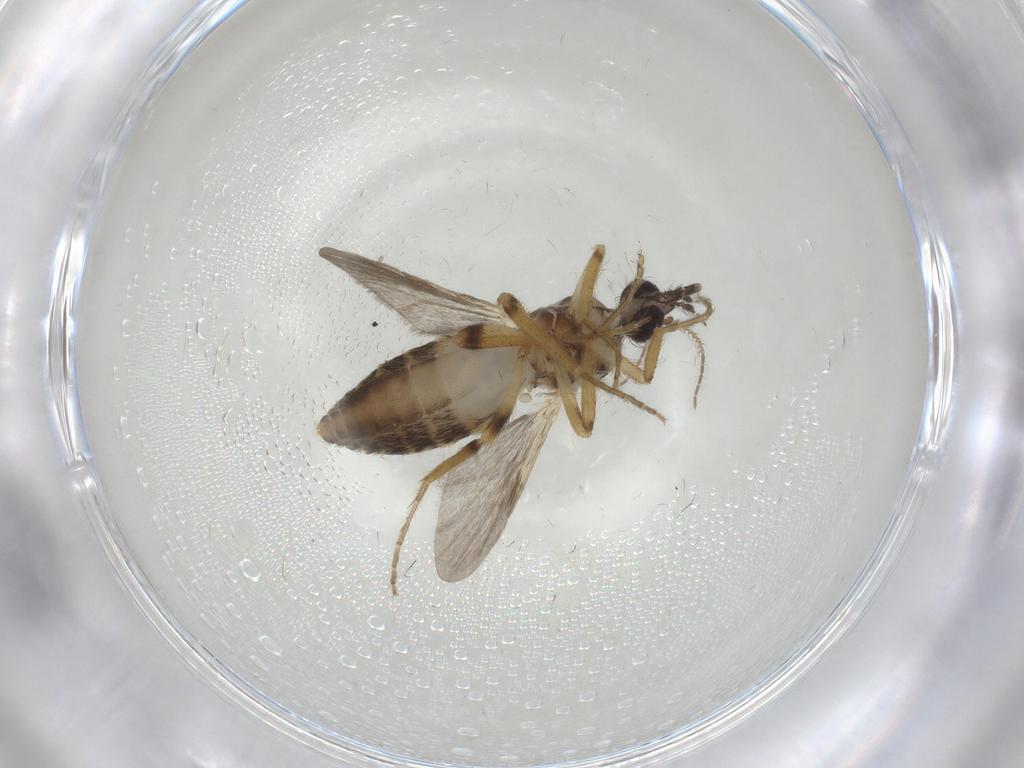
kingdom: Animalia
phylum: Arthropoda
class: Insecta
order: Diptera
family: Ceratopogonidae
